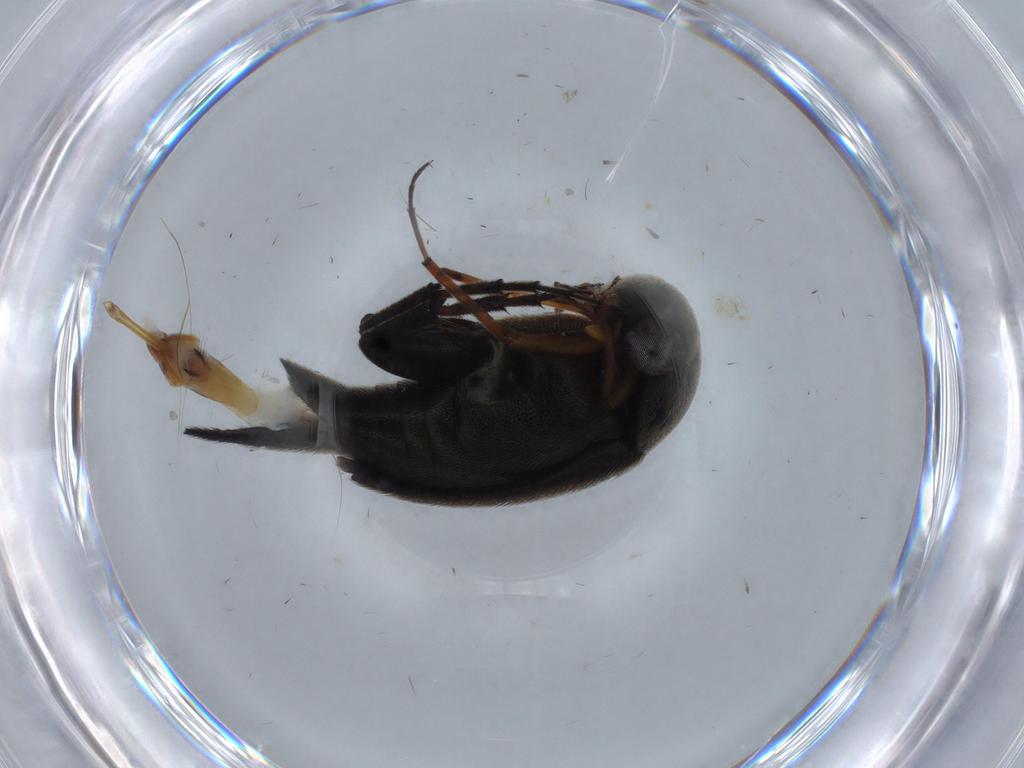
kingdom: Animalia
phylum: Arthropoda
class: Insecta
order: Coleoptera
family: Mordellidae
